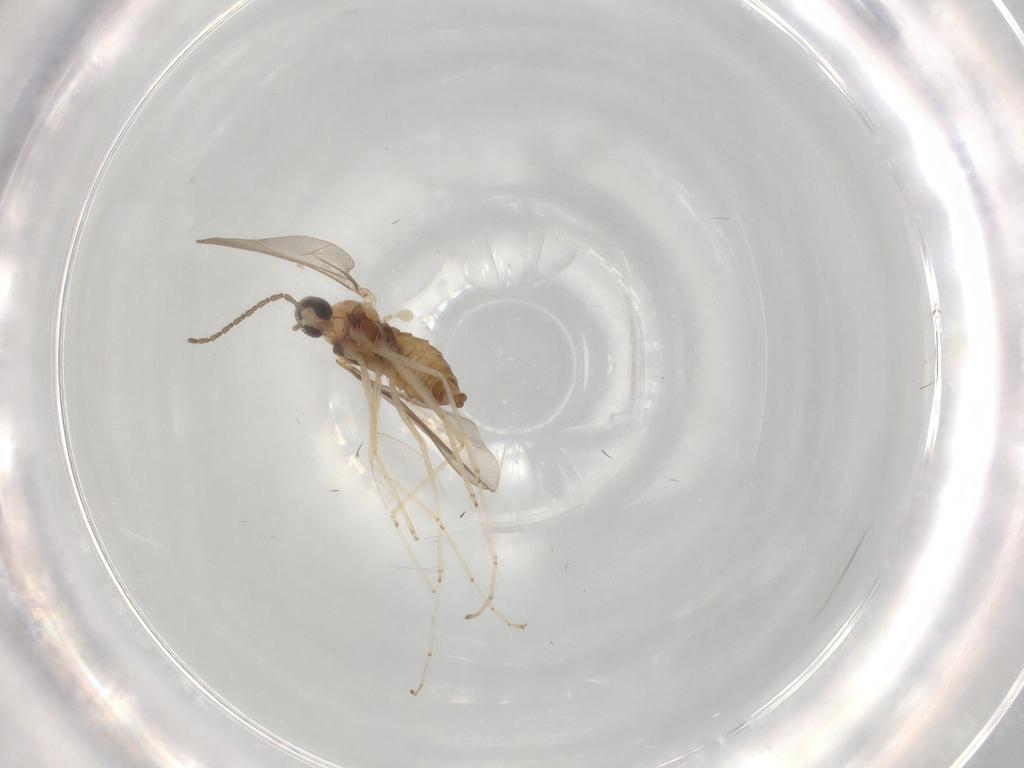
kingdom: Animalia
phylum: Arthropoda
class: Insecta
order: Diptera
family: Cecidomyiidae
